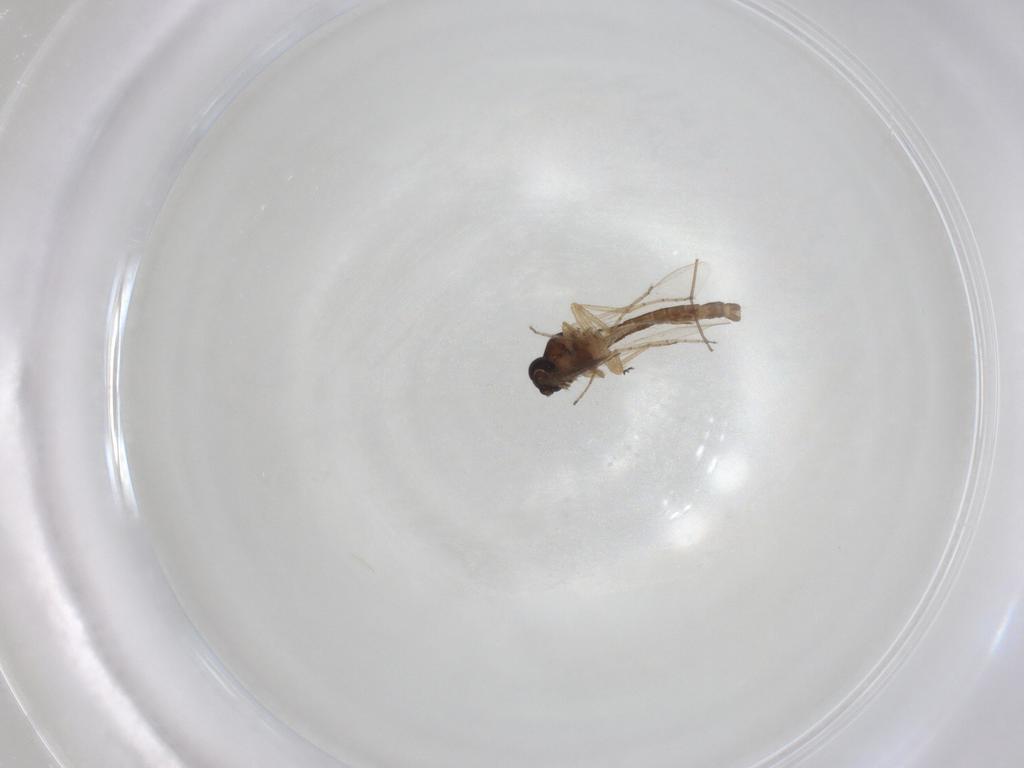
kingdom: Animalia
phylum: Arthropoda
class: Insecta
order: Diptera
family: Chironomidae
